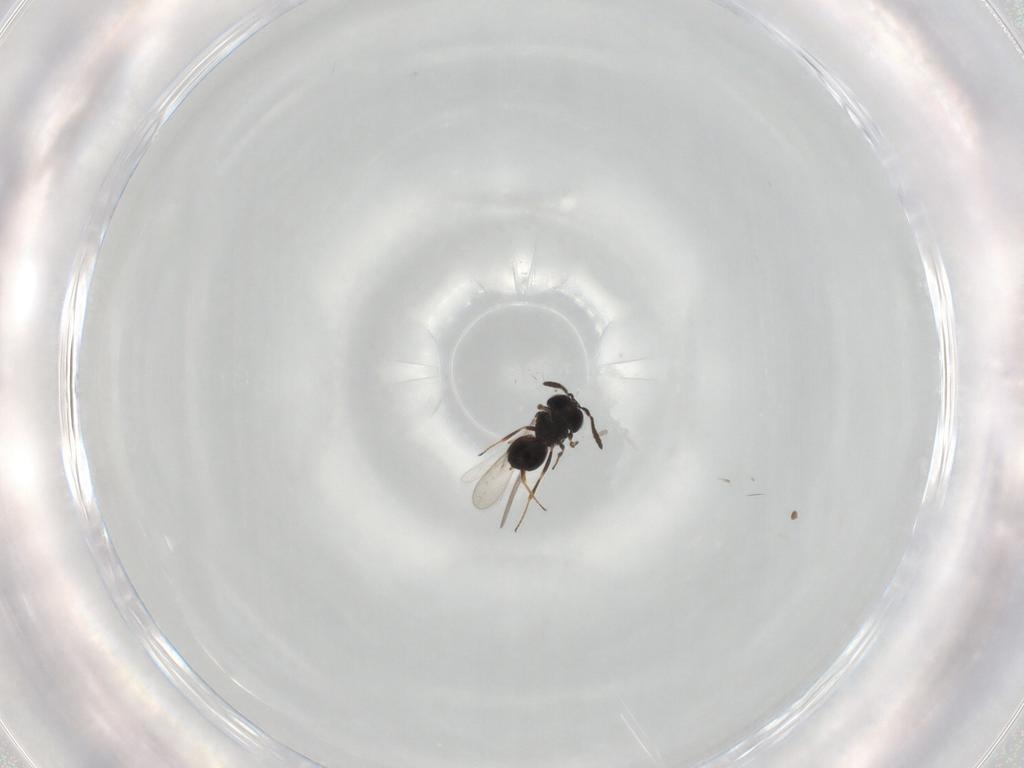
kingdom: Animalia
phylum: Arthropoda
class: Insecta
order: Hymenoptera
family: Scelionidae
